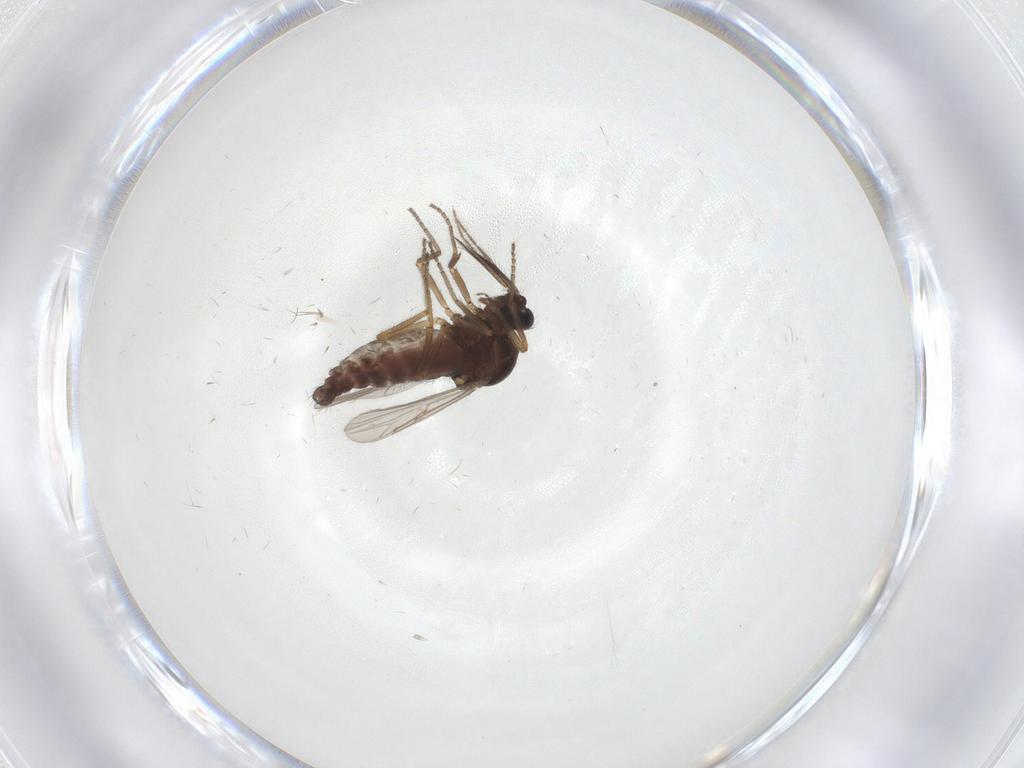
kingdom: Animalia
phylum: Arthropoda
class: Insecta
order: Diptera
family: Ceratopogonidae
